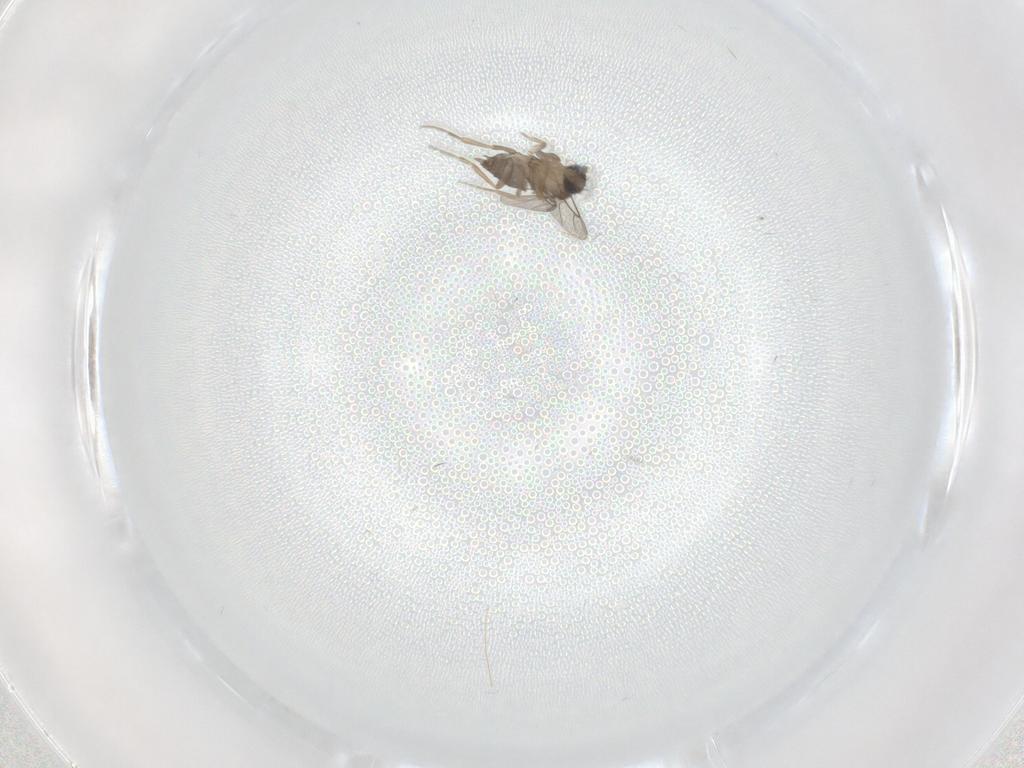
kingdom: Animalia
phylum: Arthropoda
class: Insecta
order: Diptera
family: Phoridae
